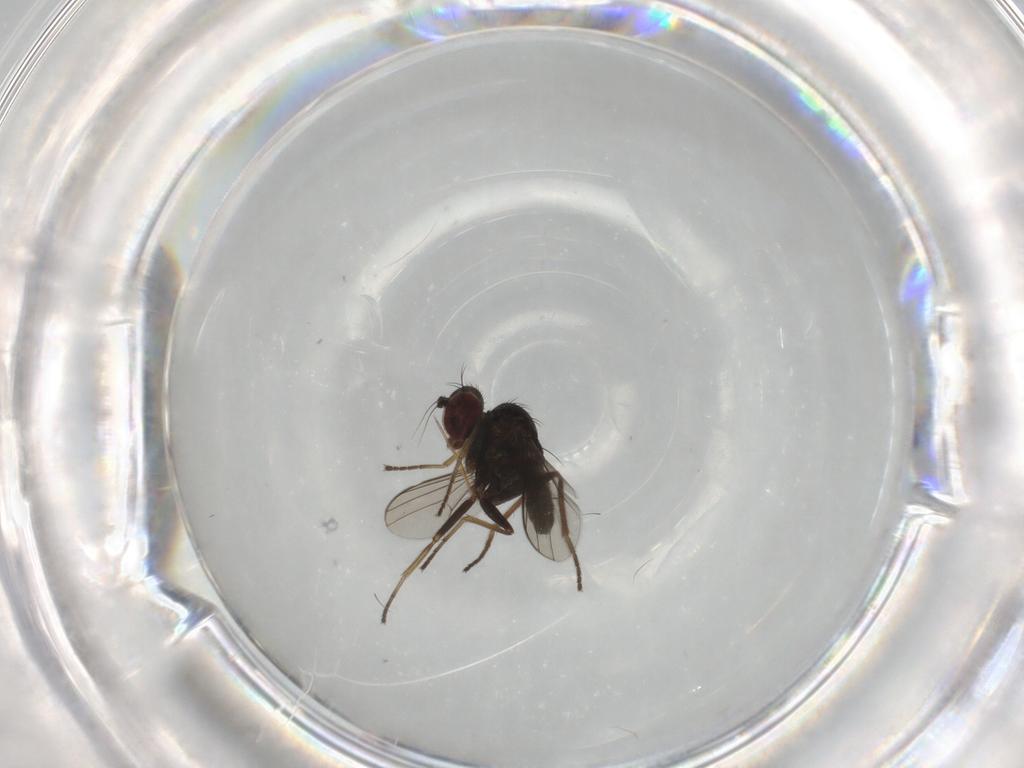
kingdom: Animalia
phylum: Arthropoda
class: Insecta
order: Diptera
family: Dolichopodidae
